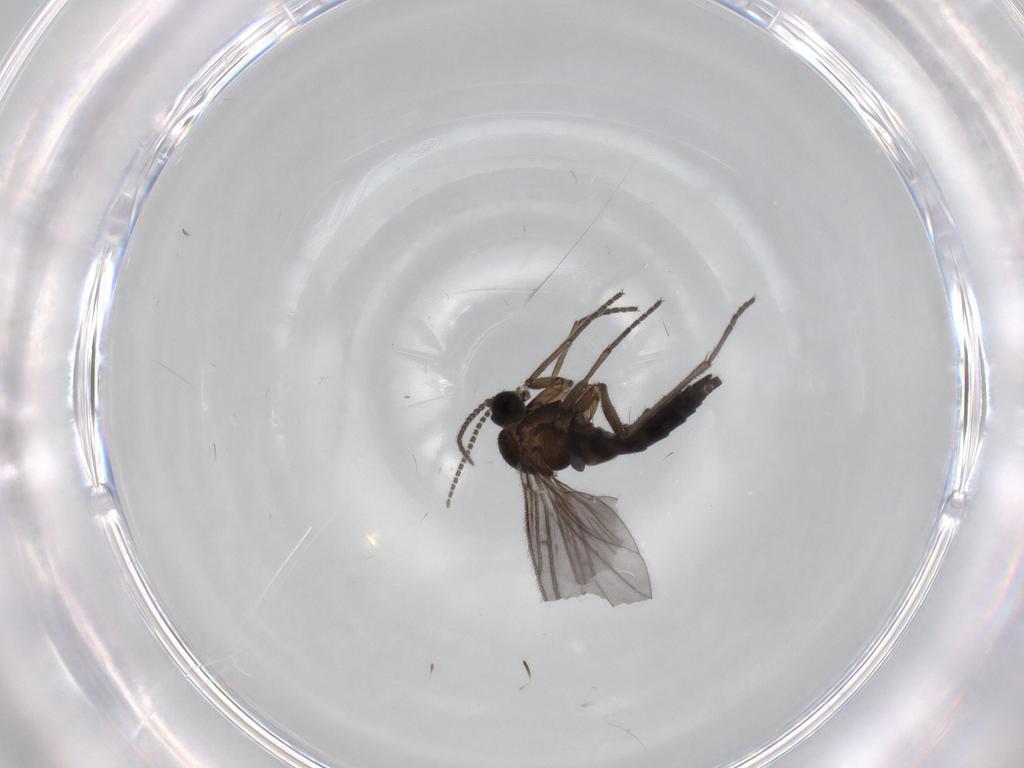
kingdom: Animalia
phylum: Arthropoda
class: Insecta
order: Diptera
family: Sciaridae
